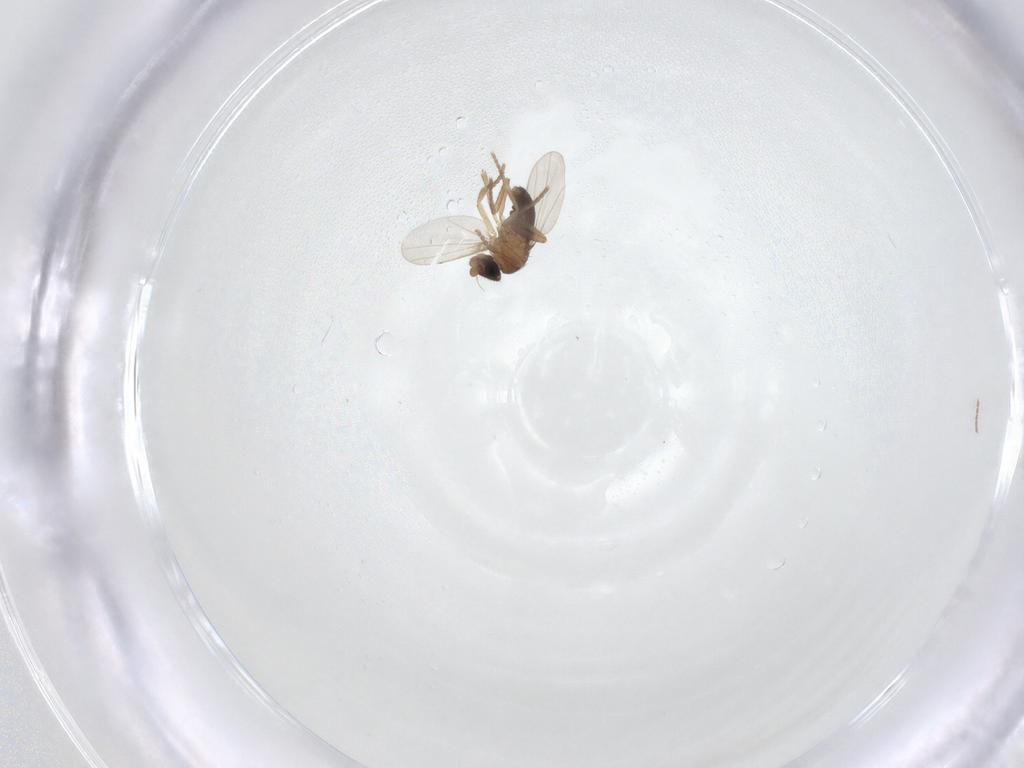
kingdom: Animalia
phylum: Arthropoda
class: Insecta
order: Diptera
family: Phoridae
